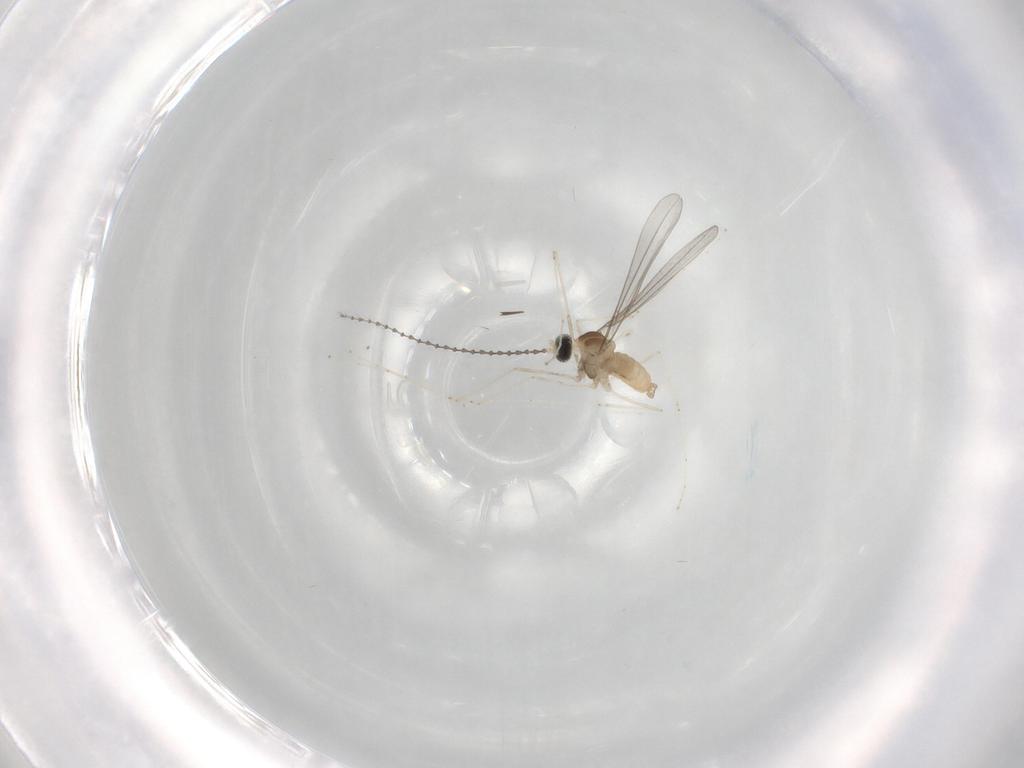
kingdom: Animalia
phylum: Arthropoda
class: Insecta
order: Diptera
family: Cecidomyiidae
